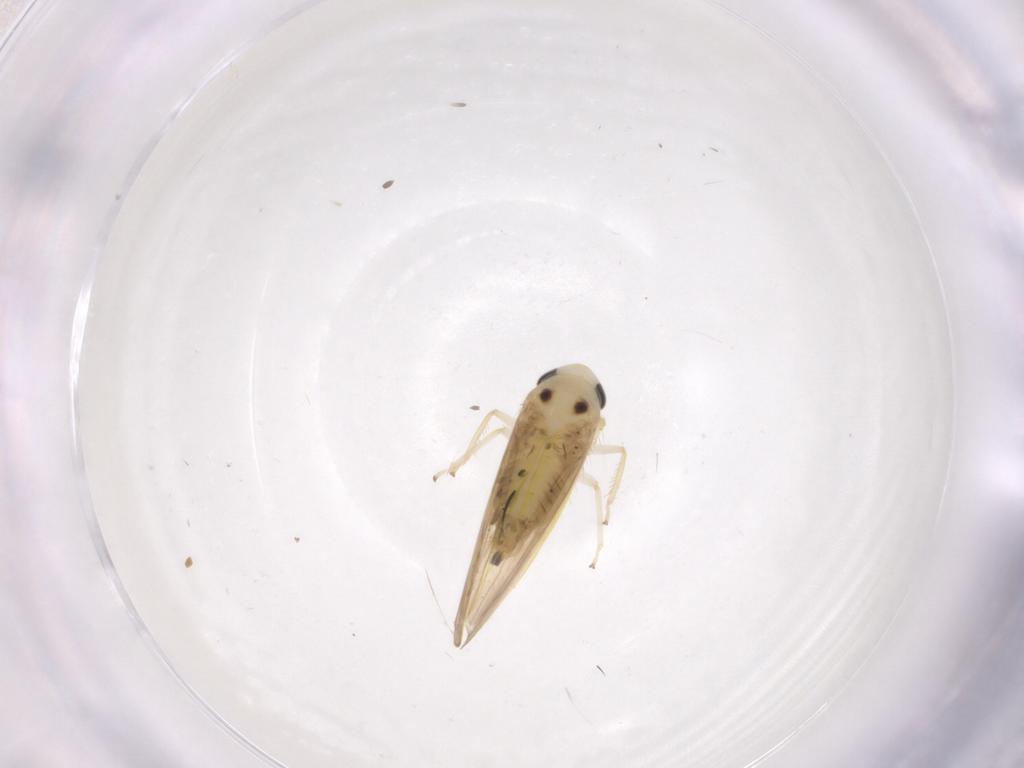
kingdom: Animalia
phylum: Arthropoda
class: Insecta
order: Hemiptera
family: Cicadellidae
